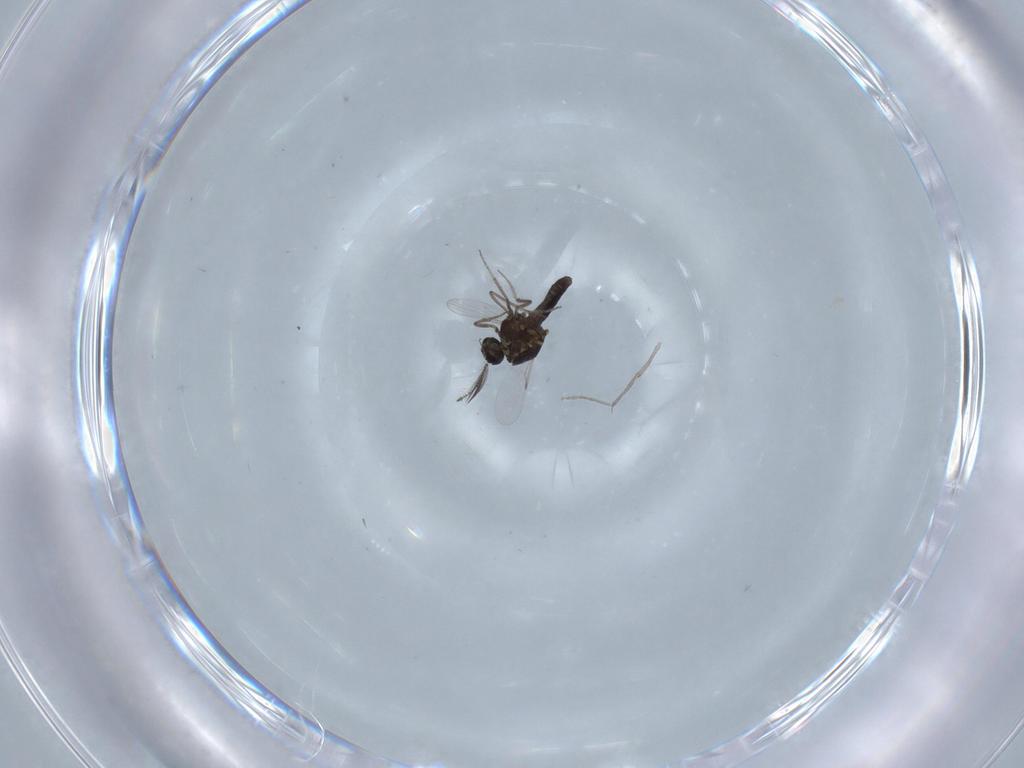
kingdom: Animalia
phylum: Arthropoda
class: Insecta
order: Diptera
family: Chironomidae
